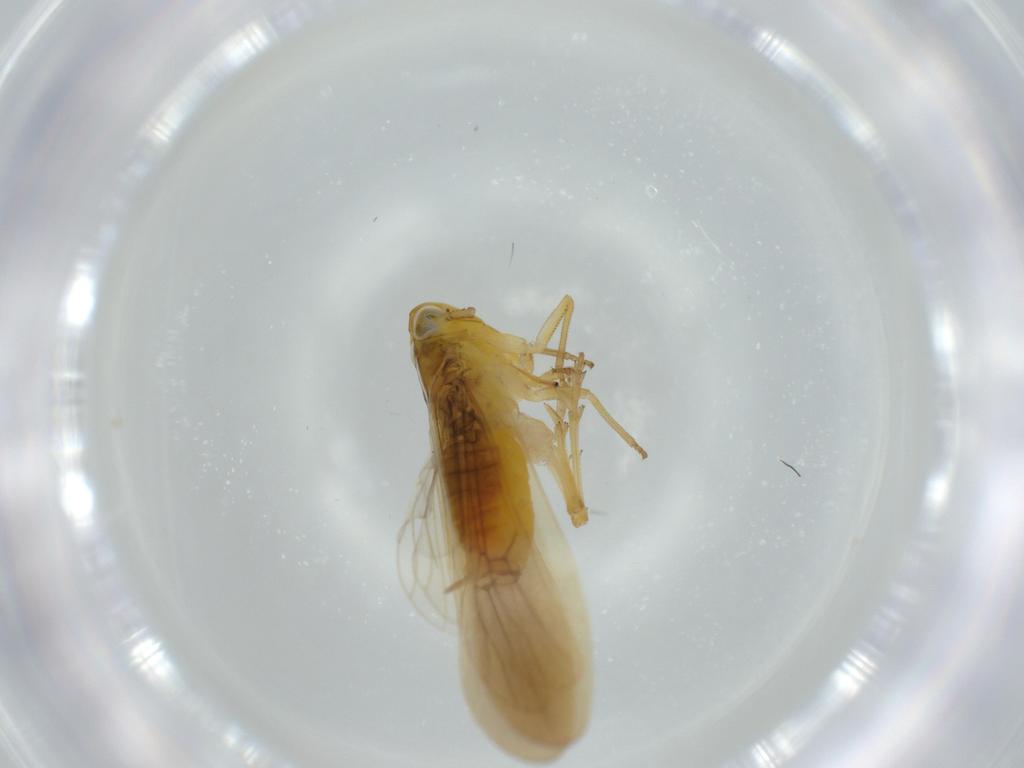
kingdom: Animalia
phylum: Arthropoda
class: Insecta
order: Hemiptera
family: Delphacidae
